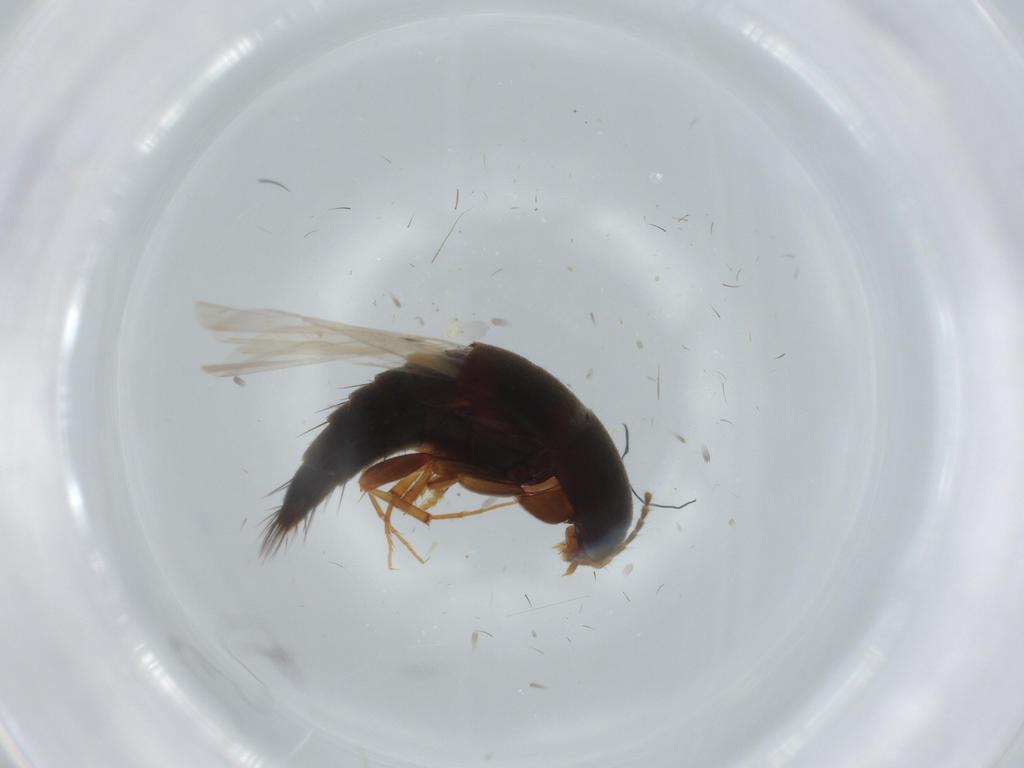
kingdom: Animalia
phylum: Arthropoda
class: Insecta
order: Coleoptera
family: Staphylinidae
